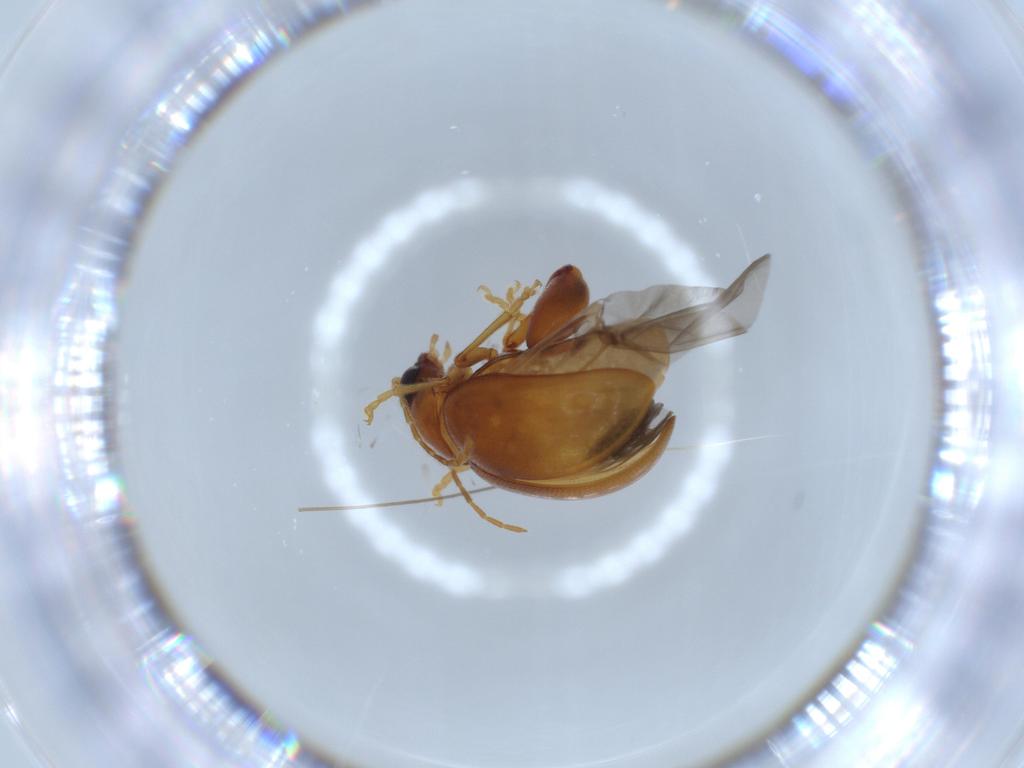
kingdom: Animalia
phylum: Arthropoda
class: Insecta
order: Coleoptera
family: Chrysomelidae
